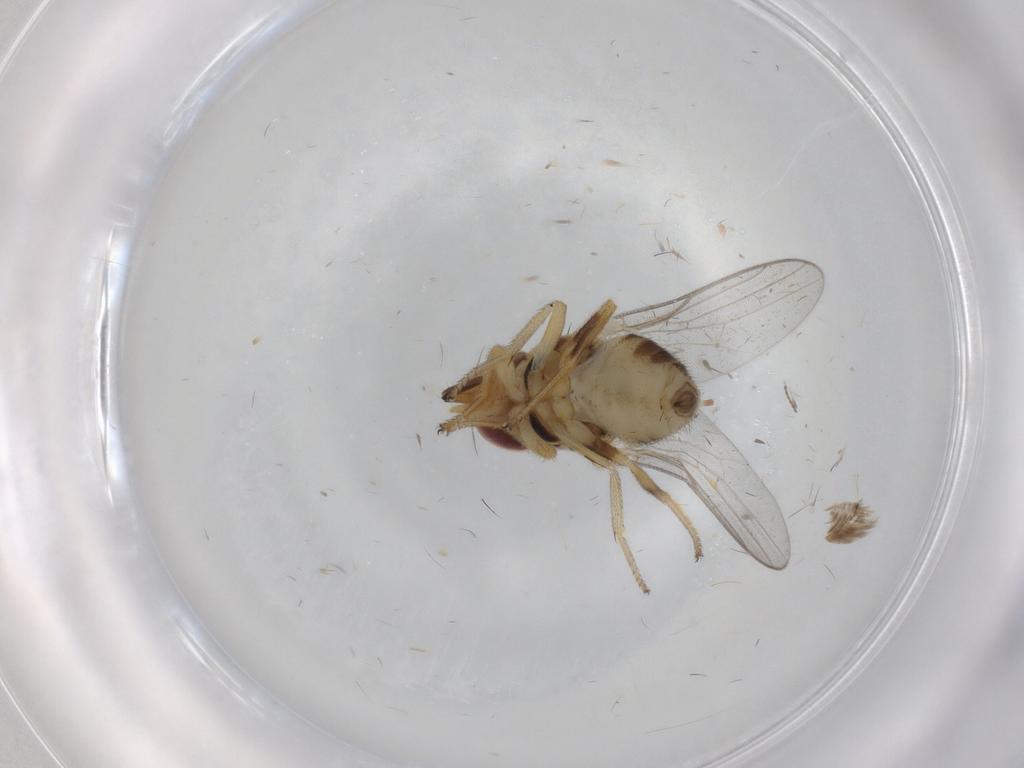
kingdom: Animalia
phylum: Arthropoda
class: Insecta
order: Diptera
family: Chloropidae
